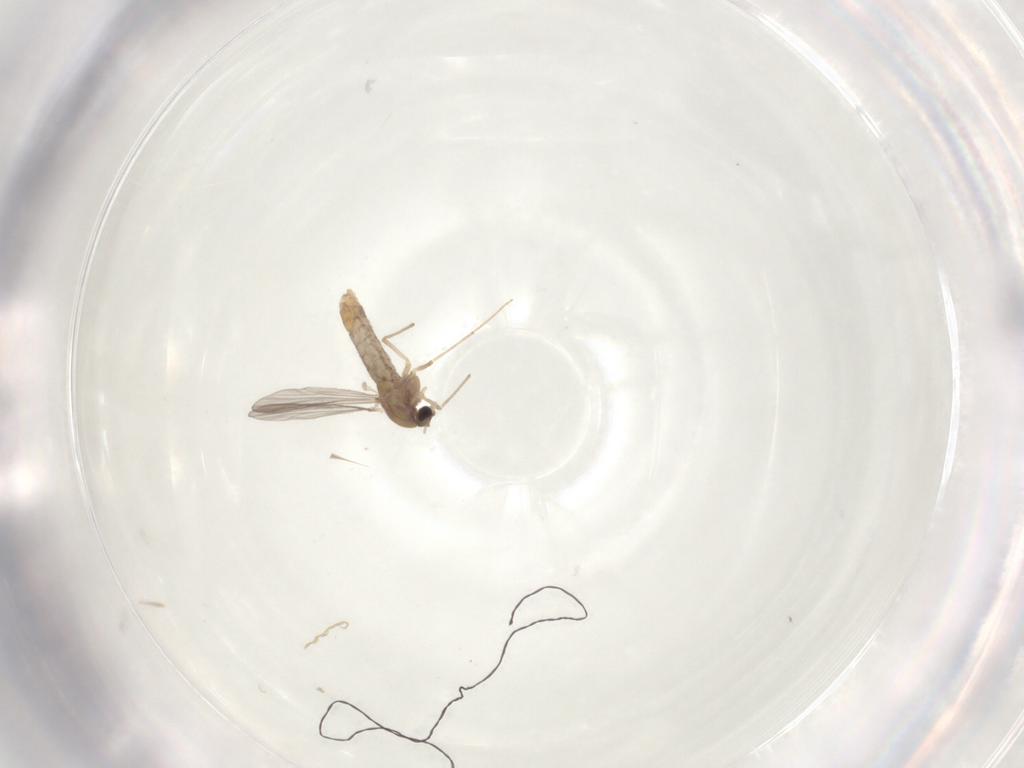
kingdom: Animalia
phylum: Arthropoda
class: Insecta
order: Diptera
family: Chironomidae
